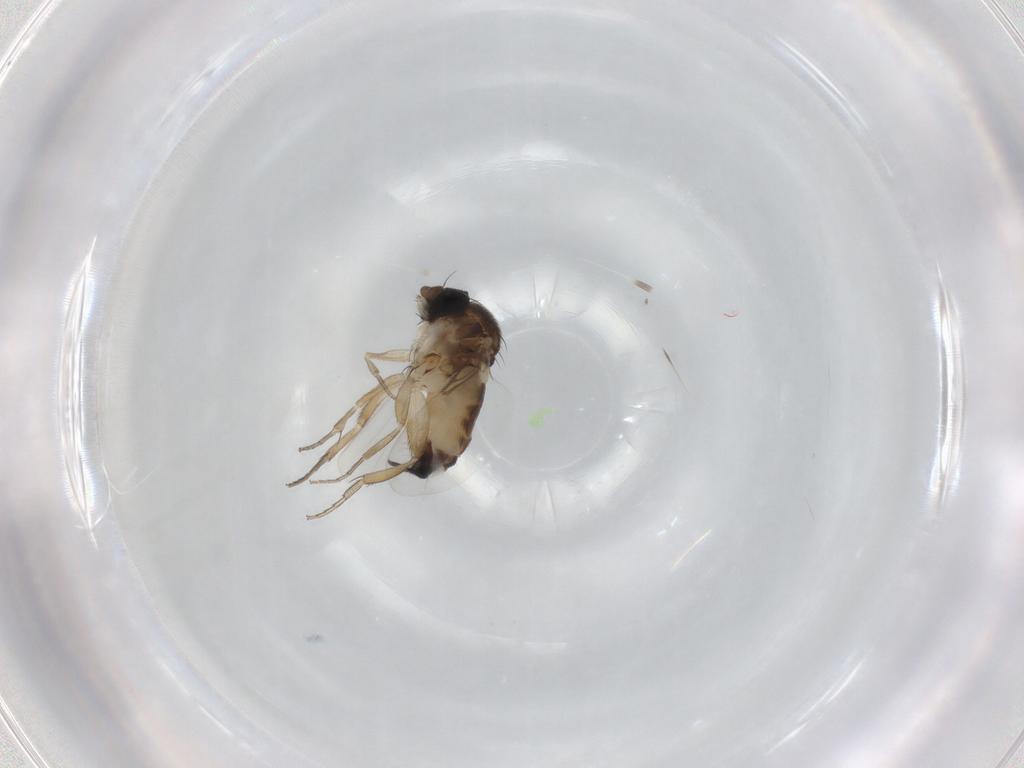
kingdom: Animalia
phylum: Arthropoda
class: Insecta
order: Diptera
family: Phoridae
